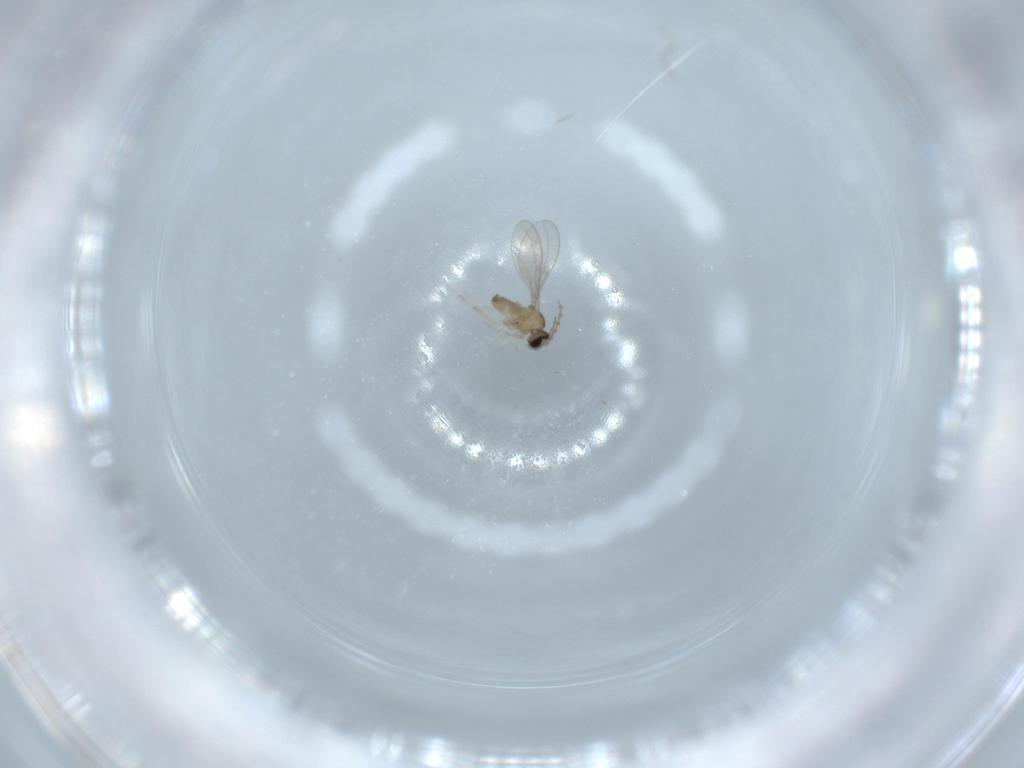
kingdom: Animalia
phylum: Arthropoda
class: Insecta
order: Diptera
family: Cecidomyiidae
